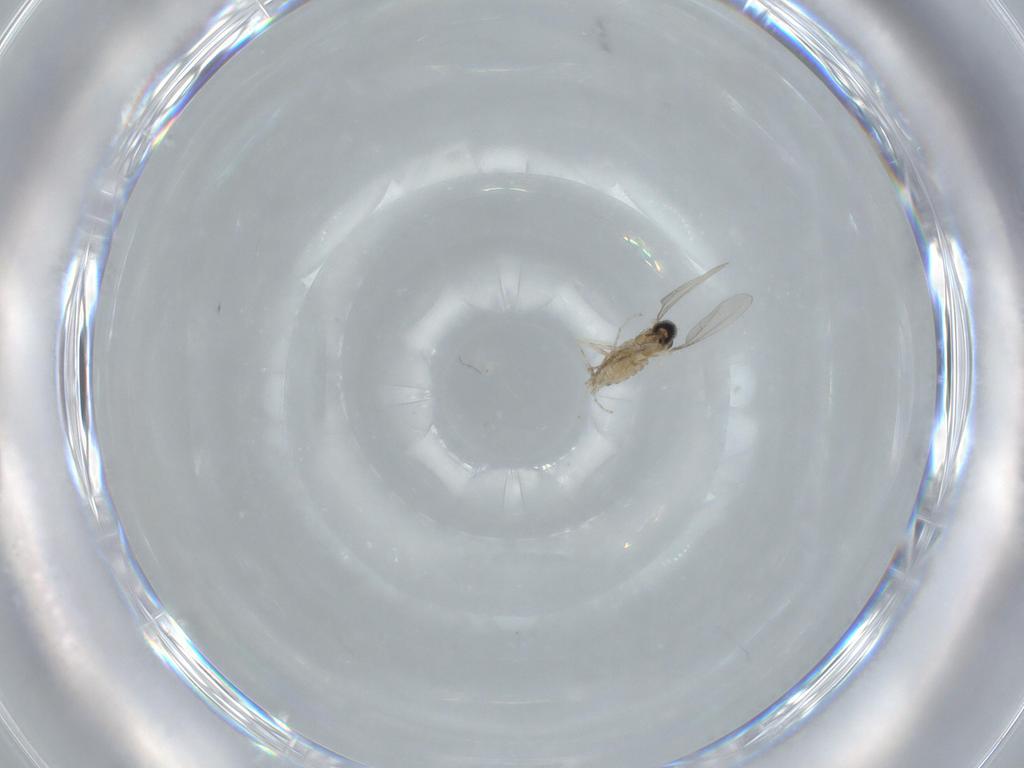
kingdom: Animalia
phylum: Arthropoda
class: Insecta
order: Diptera
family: Cecidomyiidae
